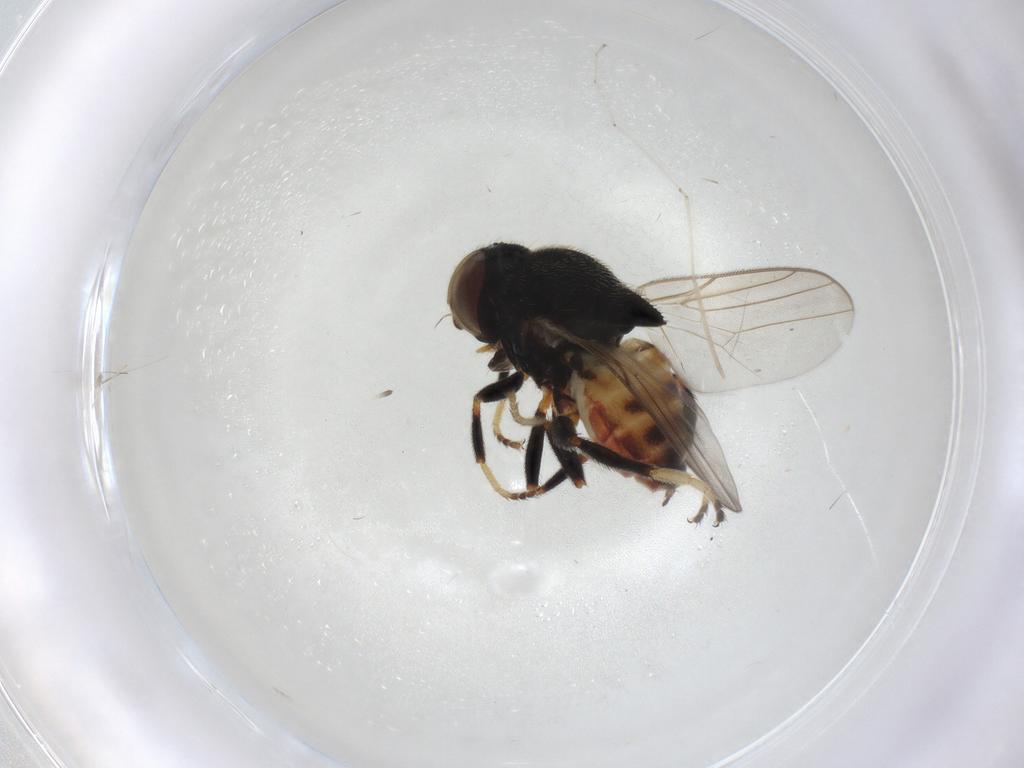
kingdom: Animalia
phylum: Arthropoda
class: Insecta
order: Diptera
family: Chloropidae
